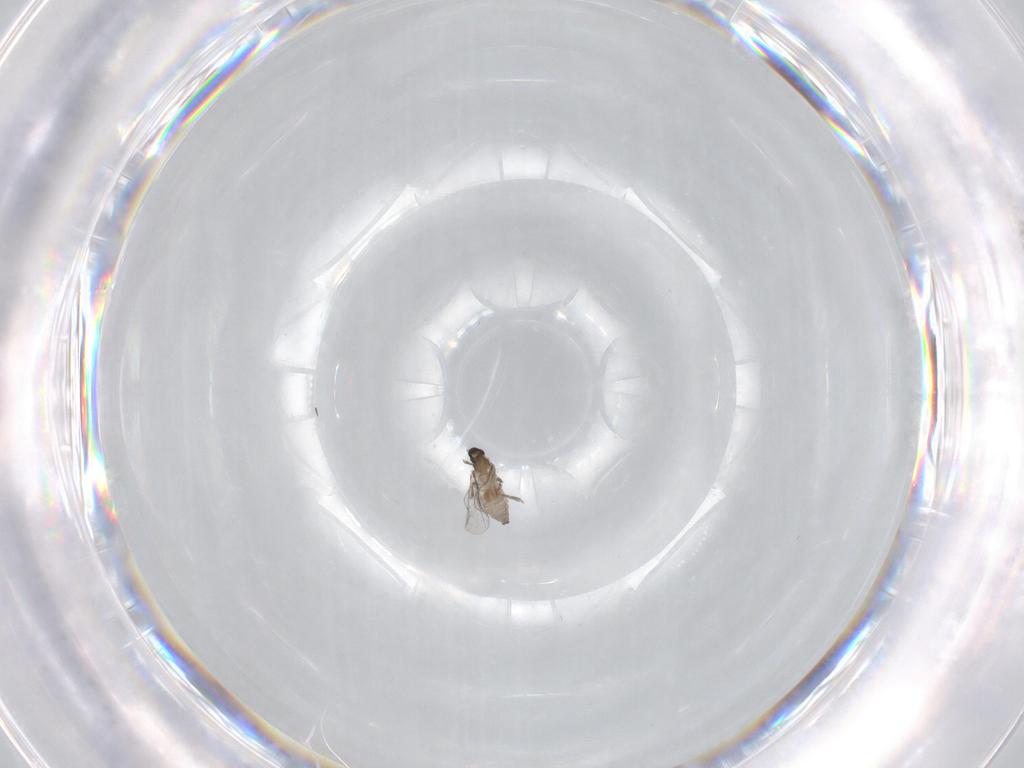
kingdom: Animalia
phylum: Arthropoda
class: Insecta
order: Diptera
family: Cecidomyiidae
